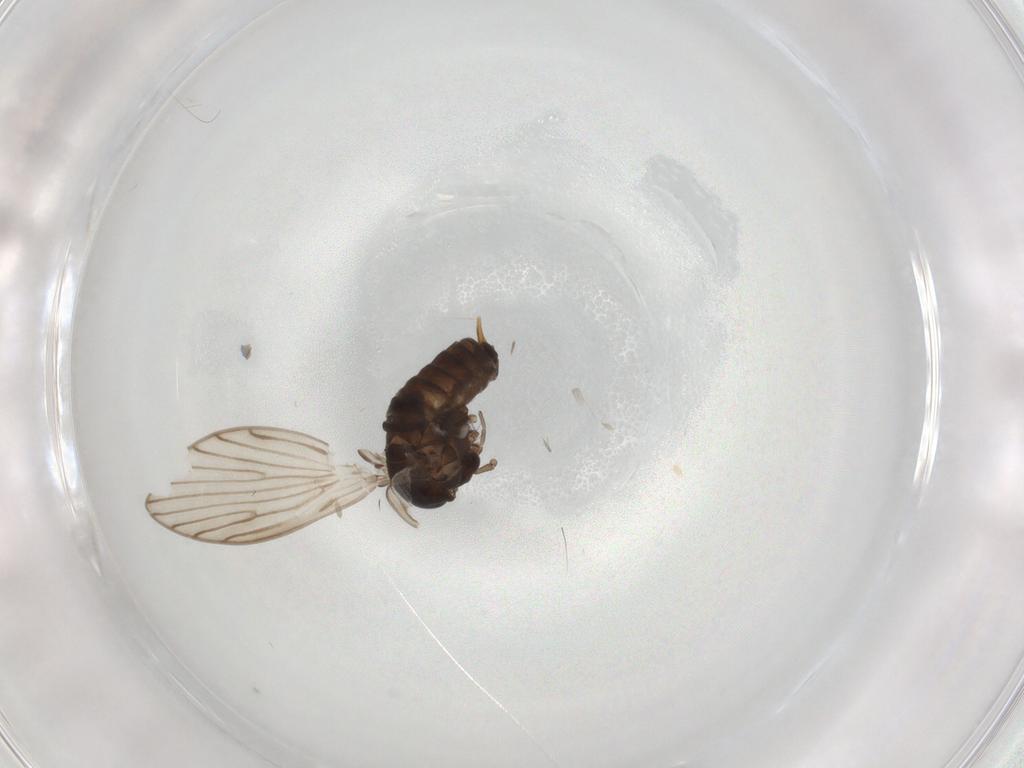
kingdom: Animalia
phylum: Arthropoda
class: Insecta
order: Diptera
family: Psychodidae
